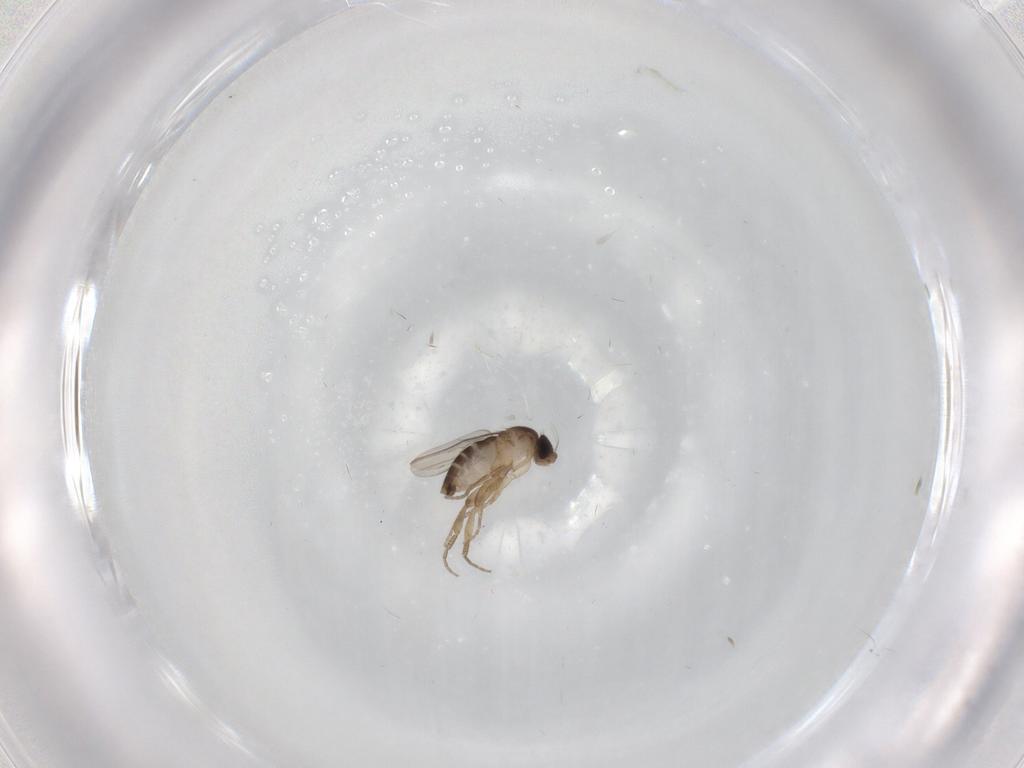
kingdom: Animalia
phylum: Arthropoda
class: Insecta
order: Diptera
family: Phoridae
